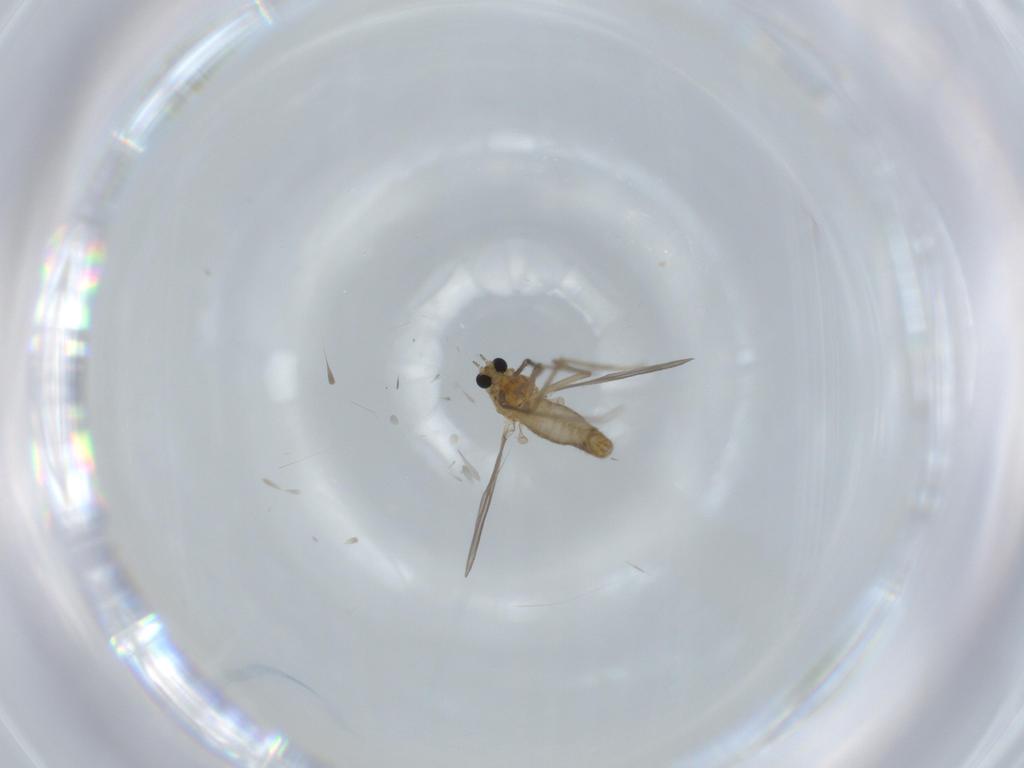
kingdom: Animalia
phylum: Arthropoda
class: Insecta
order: Diptera
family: Chironomidae
